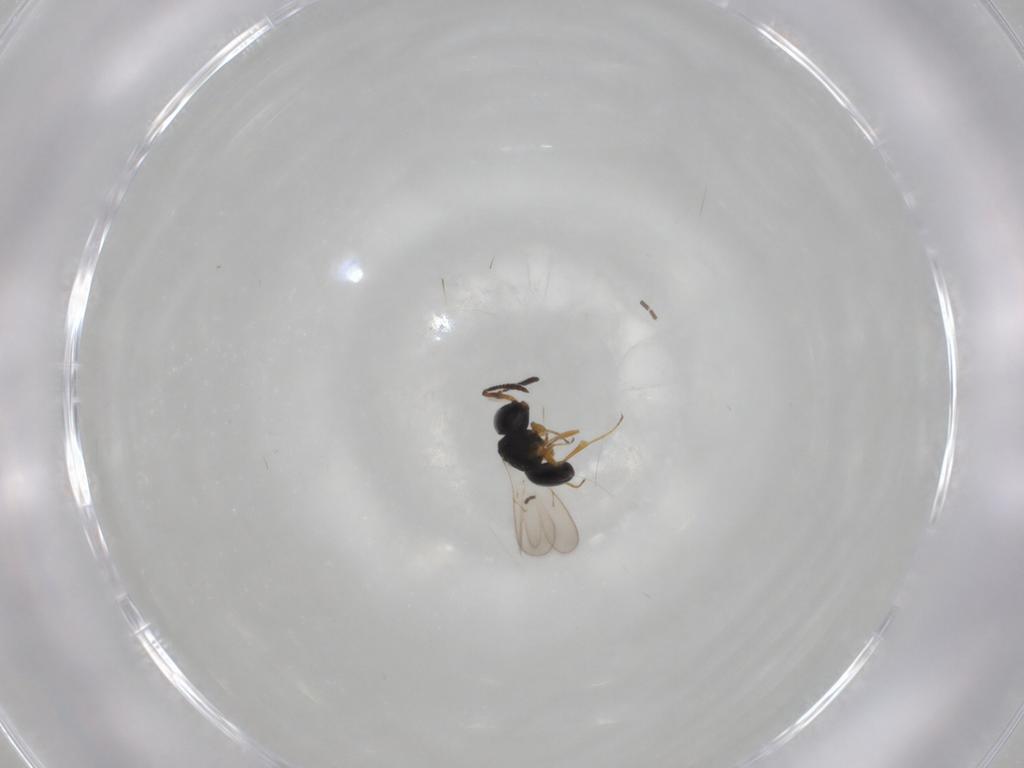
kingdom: Animalia
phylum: Arthropoda
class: Insecta
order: Hymenoptera
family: Scelionidae
